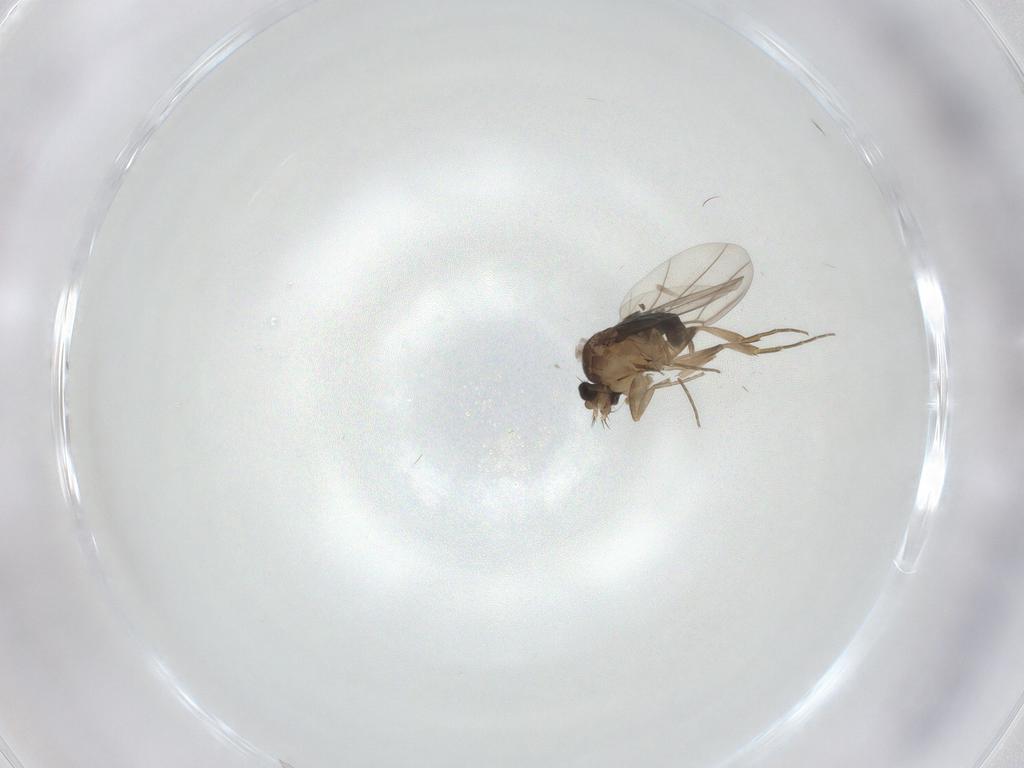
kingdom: Animalia
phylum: Arthropoda
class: Insecta
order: Diptera
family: Phoridae
